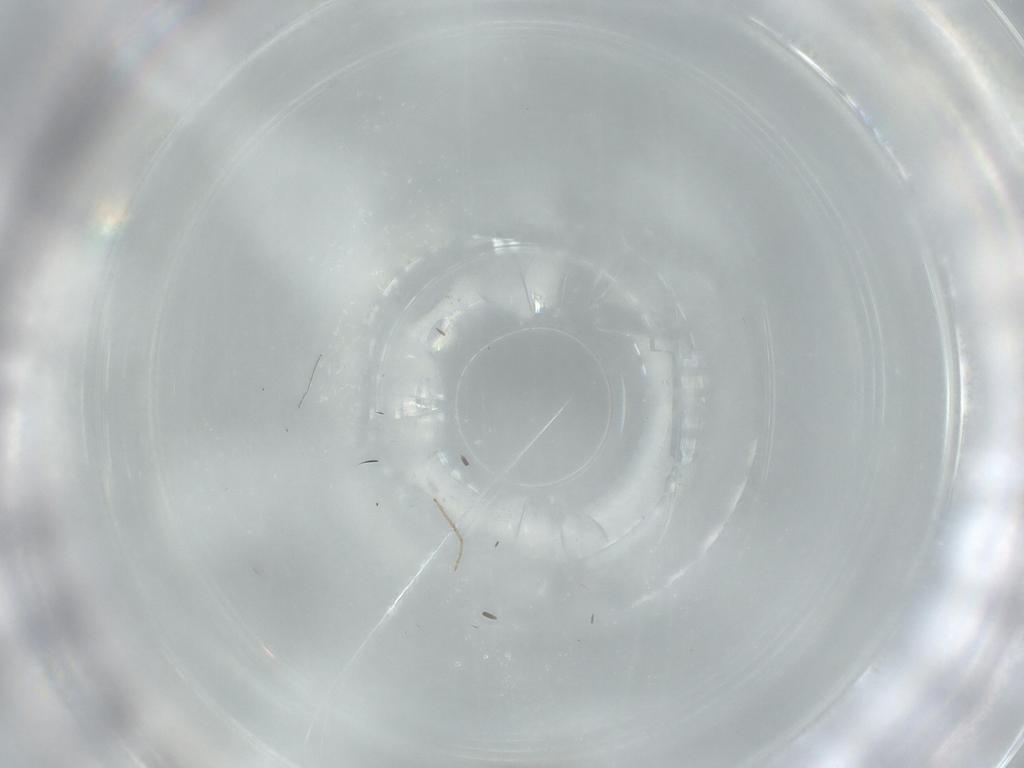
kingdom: Animalia
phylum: Arthropoda
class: Insecta
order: Diptera
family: Phoridae
